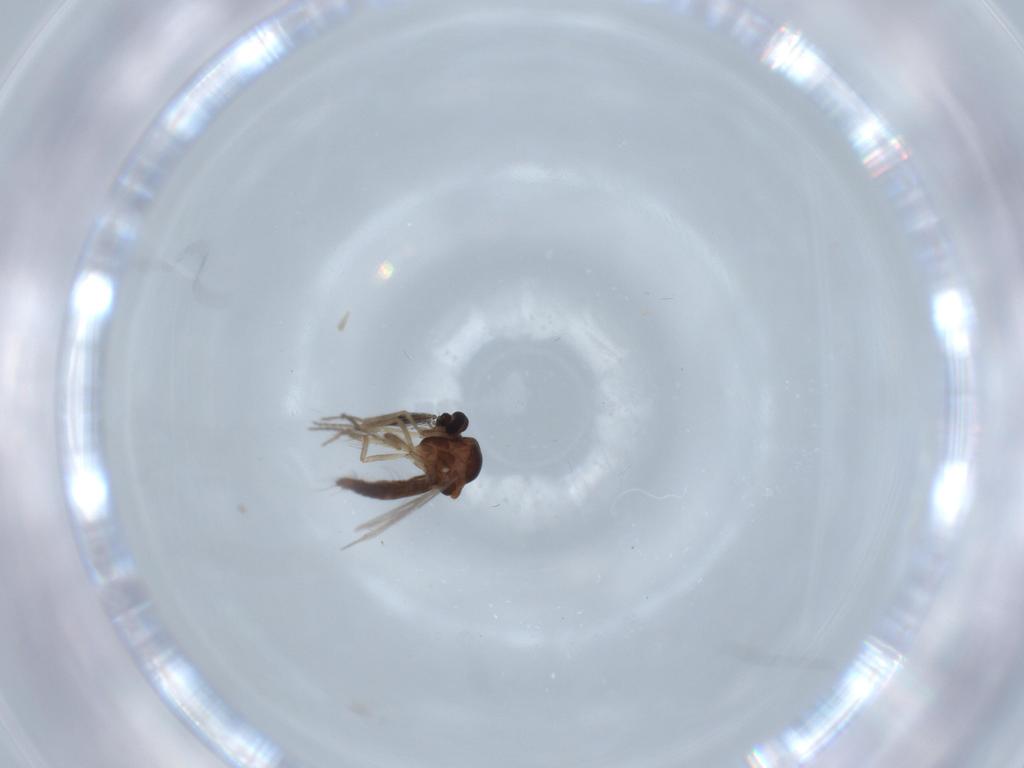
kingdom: Animalia
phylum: Arthropoda
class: Insecta
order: Diptera
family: Ceratopogonidae
